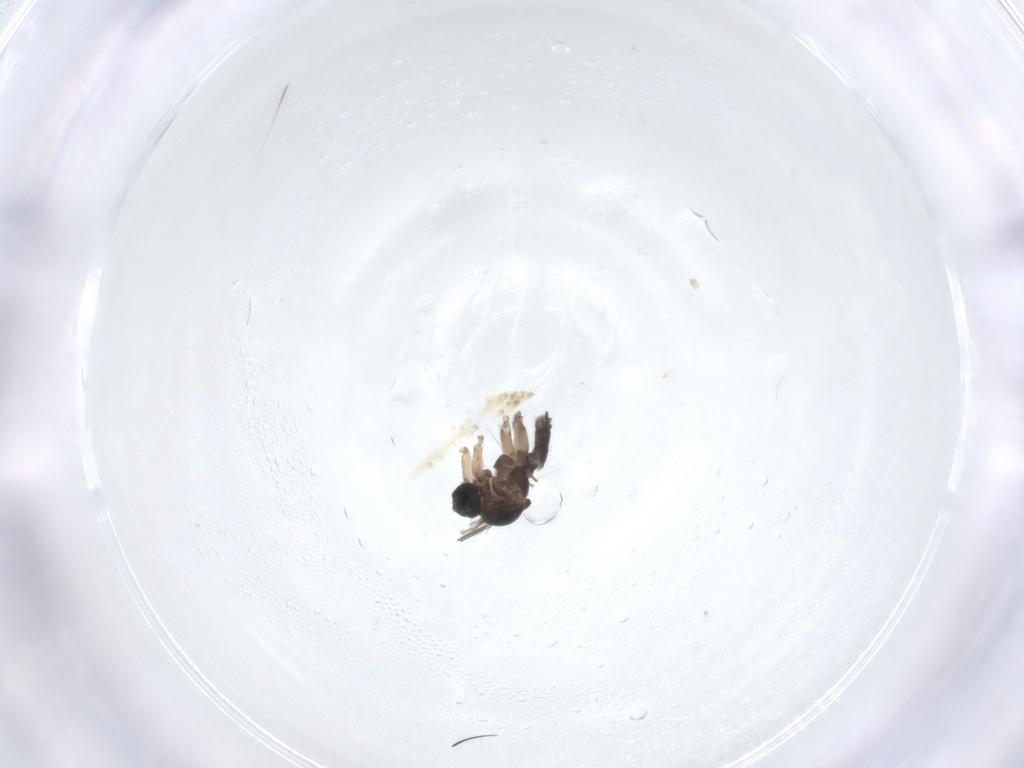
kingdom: Animalia
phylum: Arthropoda
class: Insecta
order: Diptera
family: Sciaridae
